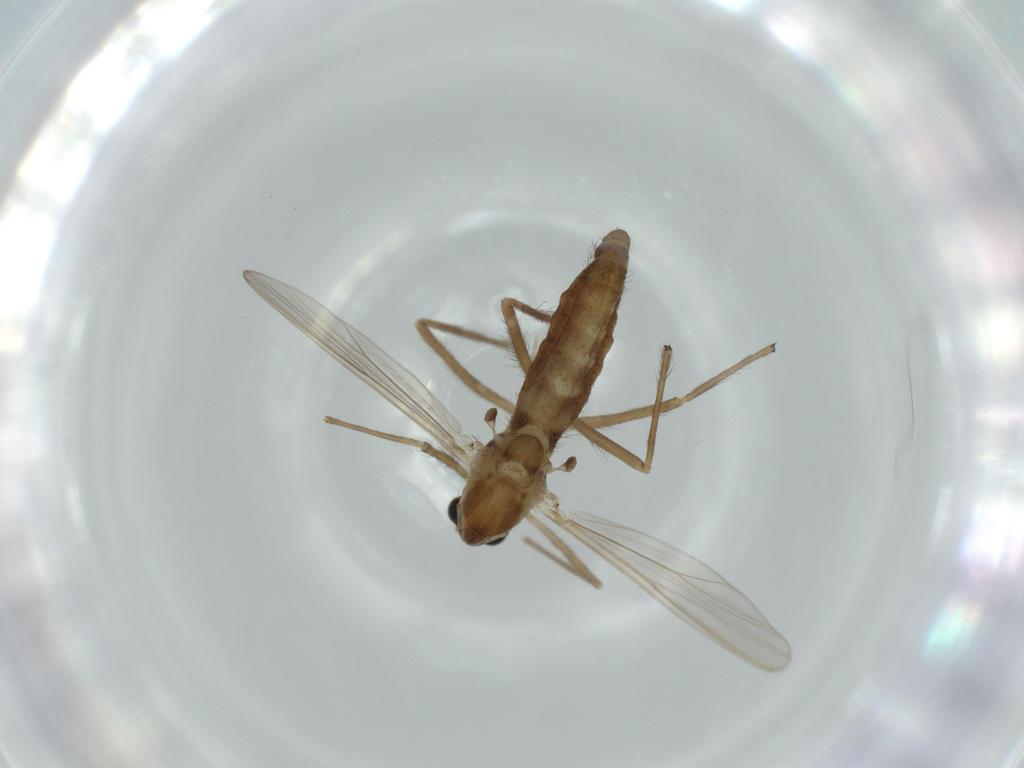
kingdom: Animalia
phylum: Arthropoda
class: Insecta
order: Diptera
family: Chironomidae
